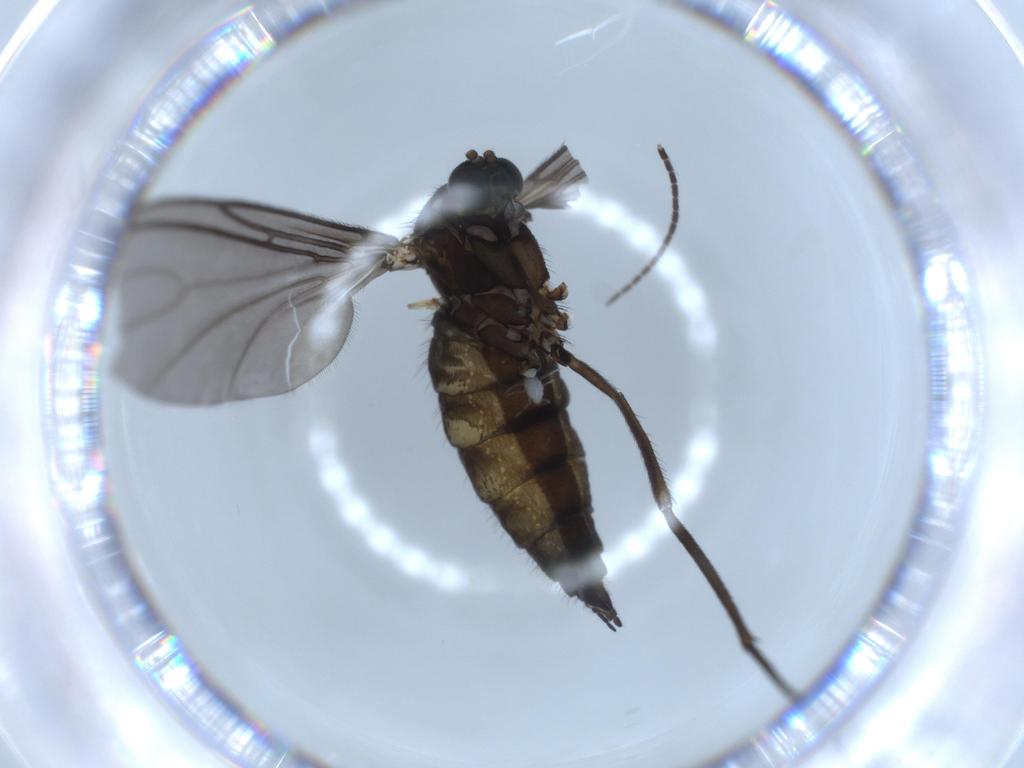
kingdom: Animalia
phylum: Arthropoda
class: Insecta
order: Diptera
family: Sciaridae
